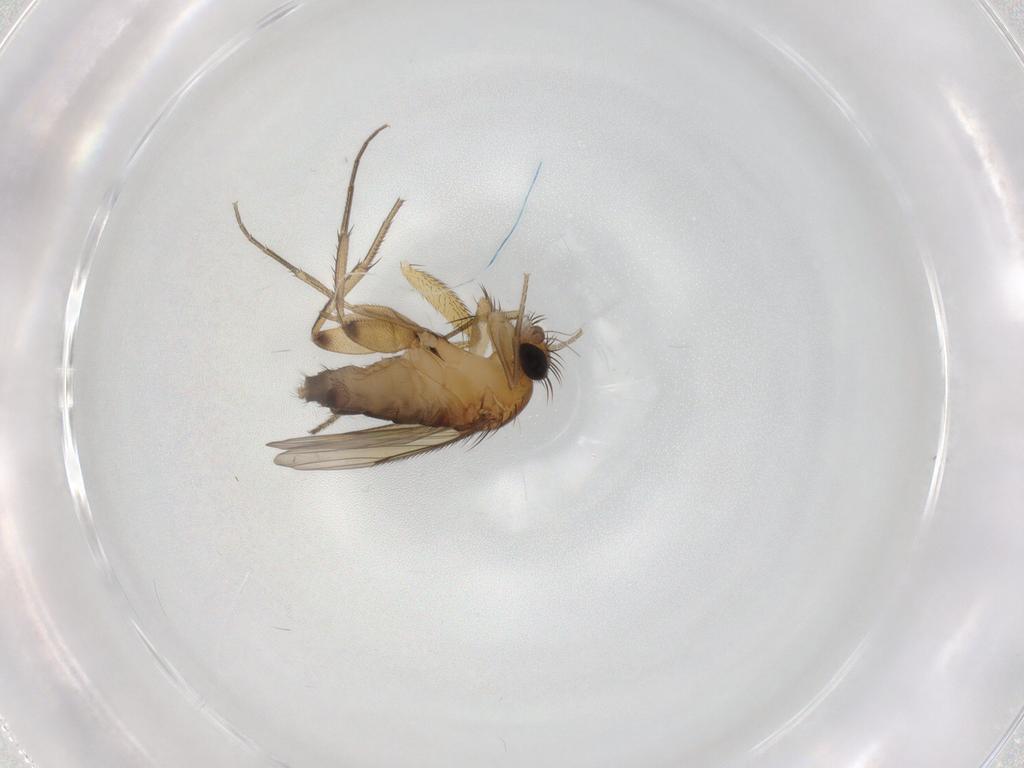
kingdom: Animalia
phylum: Arthropoda
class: Insecta
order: Diptera
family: Phoridae
